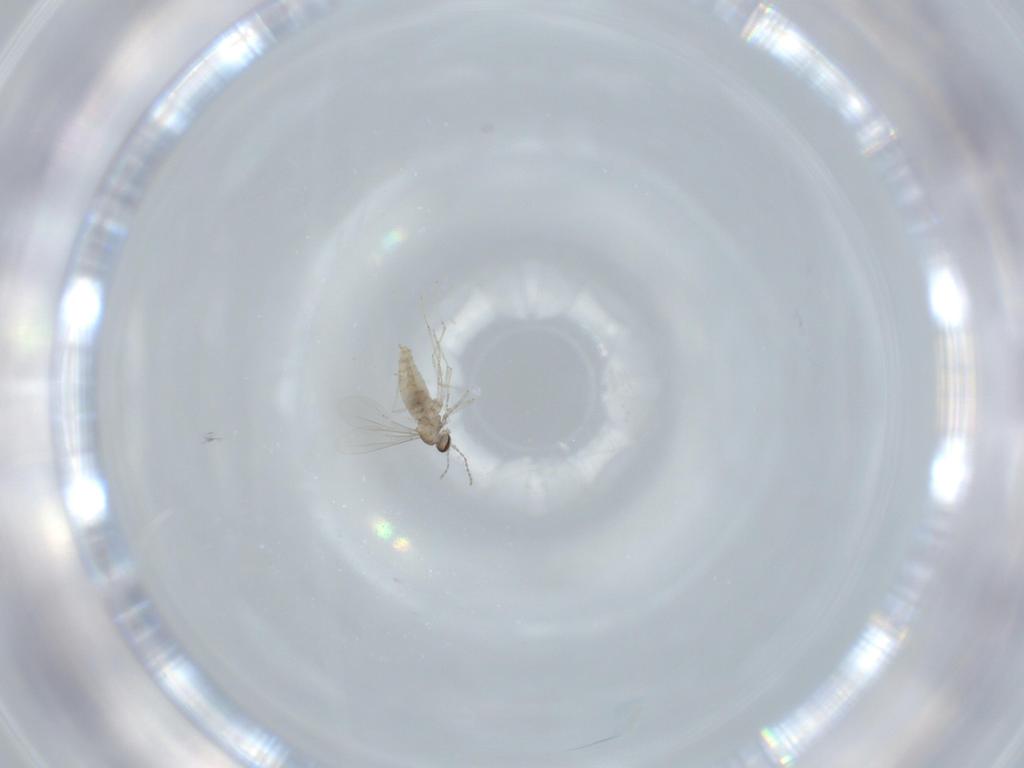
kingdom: Animalia
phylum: Arthropoda
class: Insecta
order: Diptera
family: Cecidomyiidae
